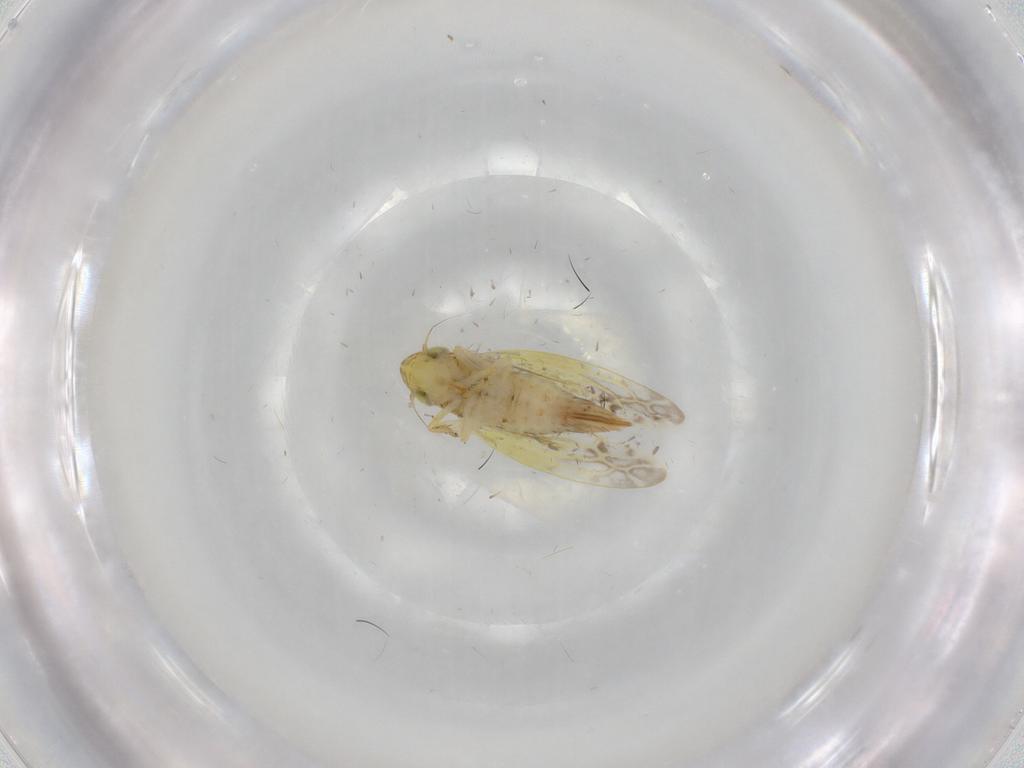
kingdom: Animalia
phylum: Arthropoda
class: Insecta
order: Hemiptera
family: Cicadellidae
